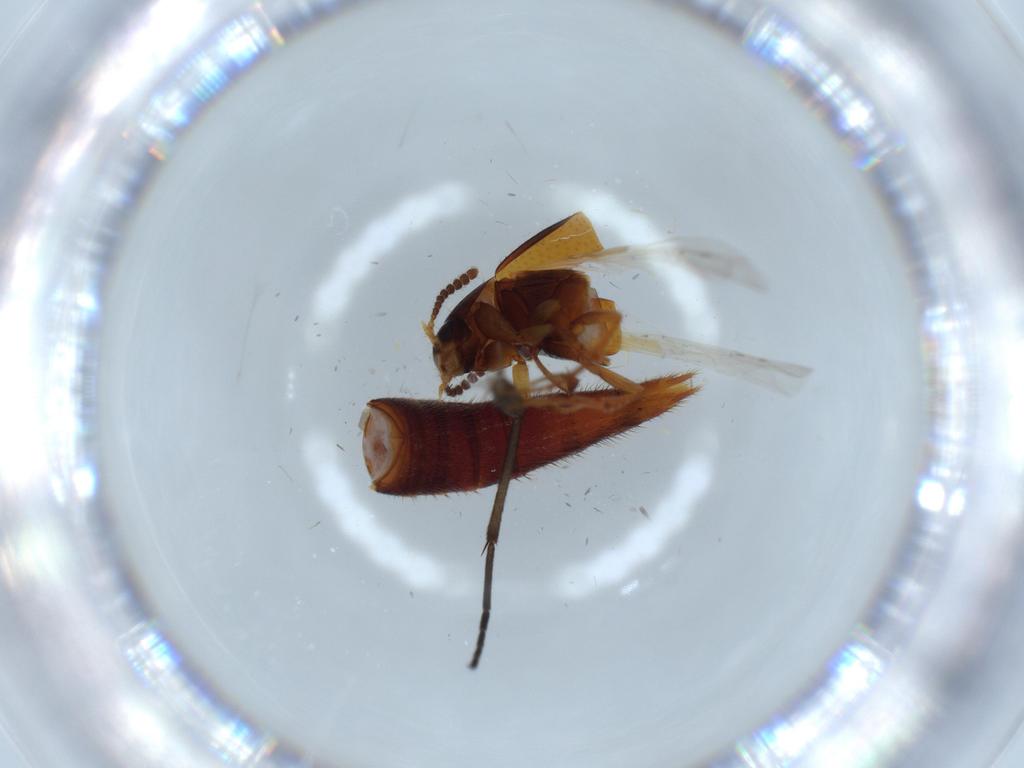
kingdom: Animalia
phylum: Arthropoda
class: Insecta
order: Coleoptera
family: Staphylinidae
